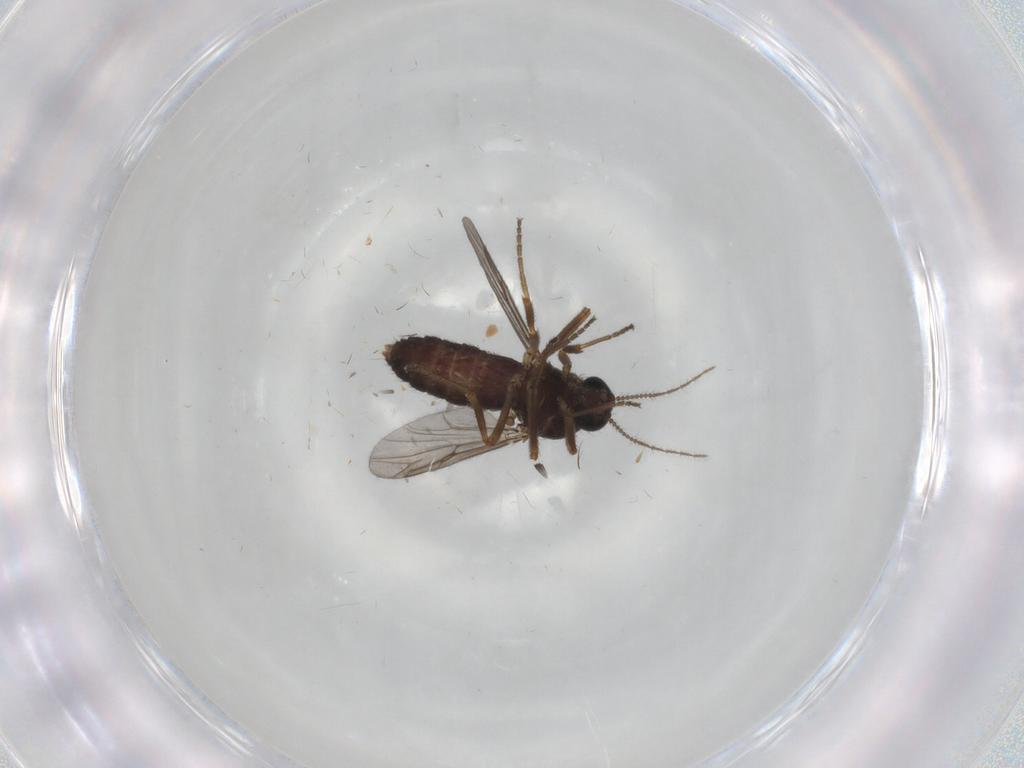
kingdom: Animalia
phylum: Arthropoda
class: Insecta
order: Diptera
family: Ceratopogonidae
